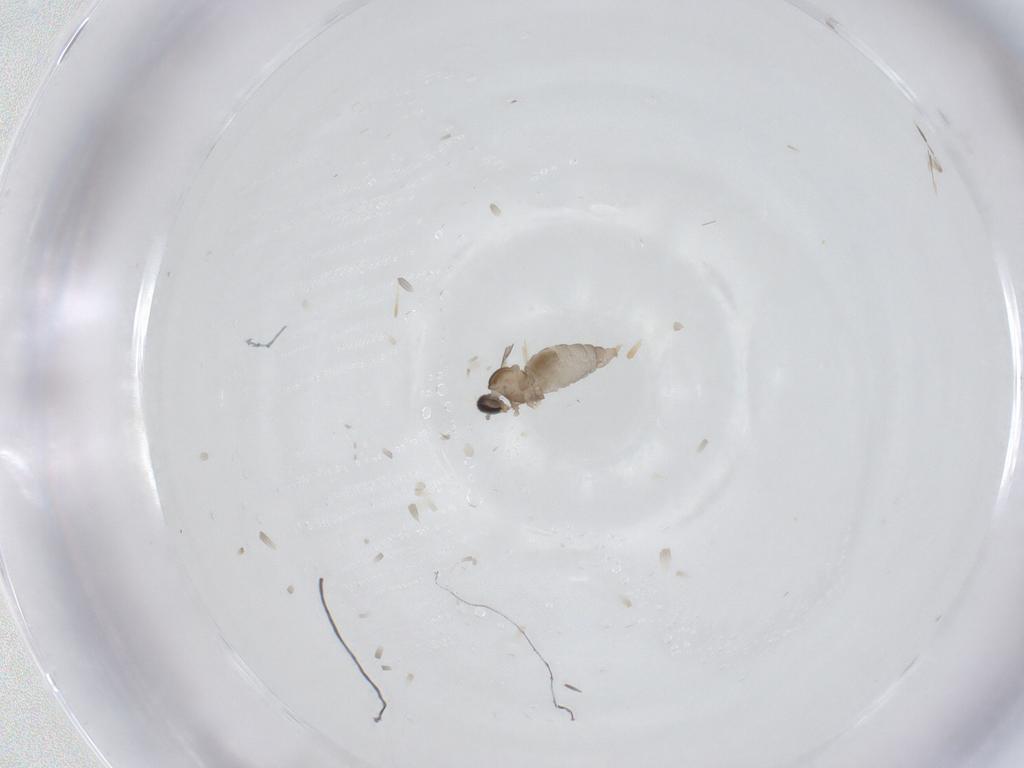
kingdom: Animalia
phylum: Arthropoda
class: Insecta
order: Diptera
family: Cecidomyiidae
